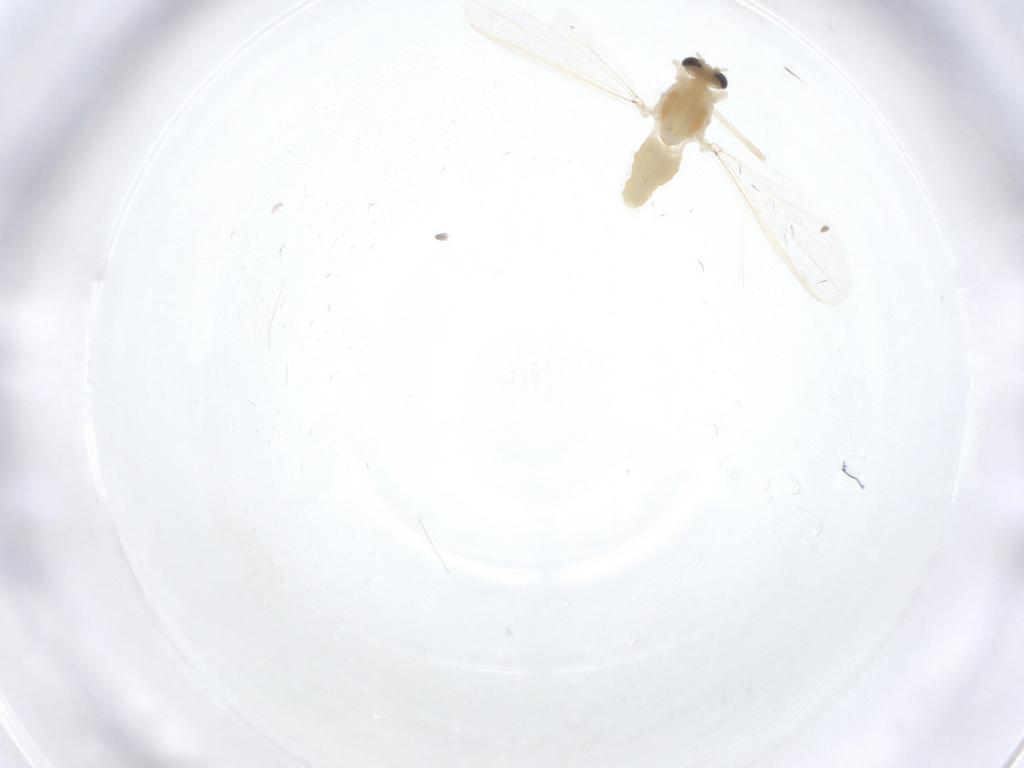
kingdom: Animalia
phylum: Arthropoda
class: Insecta
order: Diptera
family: Chironomidae
